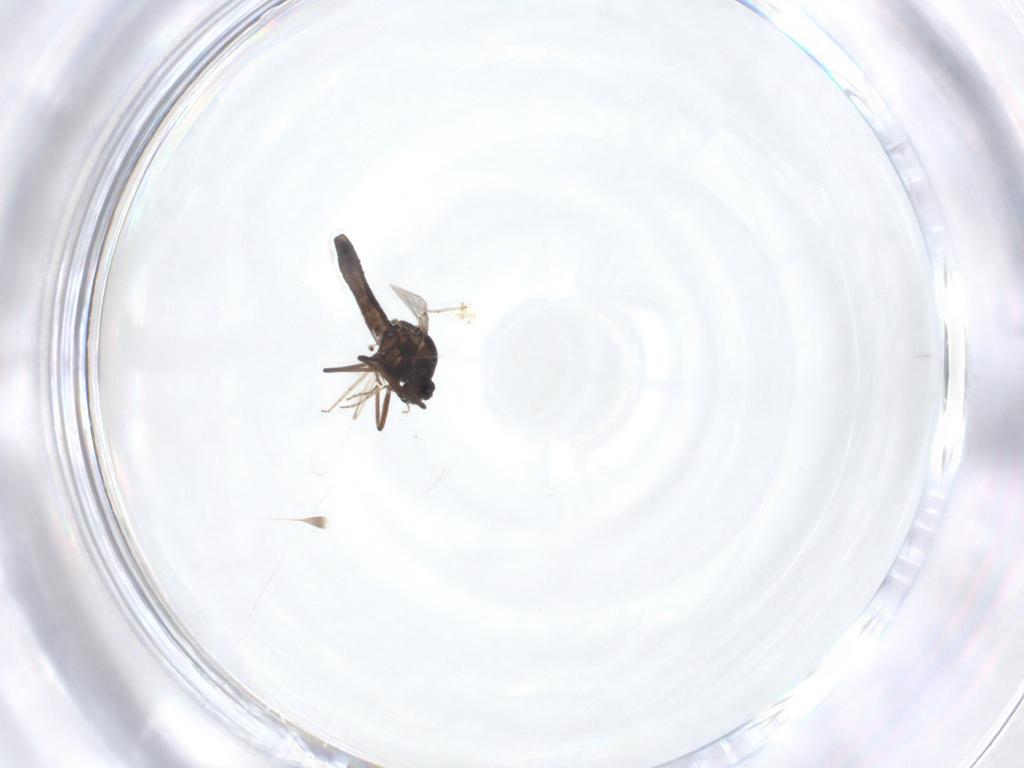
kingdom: Animalia
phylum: Arthropoda
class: Insecta
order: Diptera
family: Ceratopogonidae
